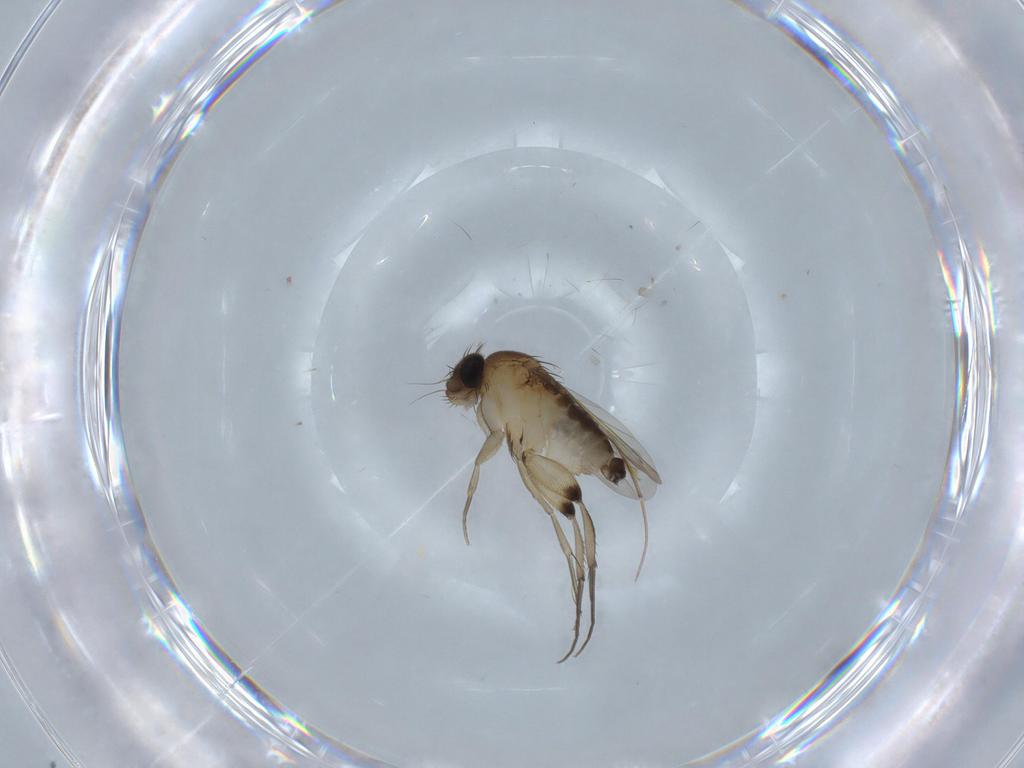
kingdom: Animalia
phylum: Arthropoda
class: Insecta
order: Diptera
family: Phoridae
